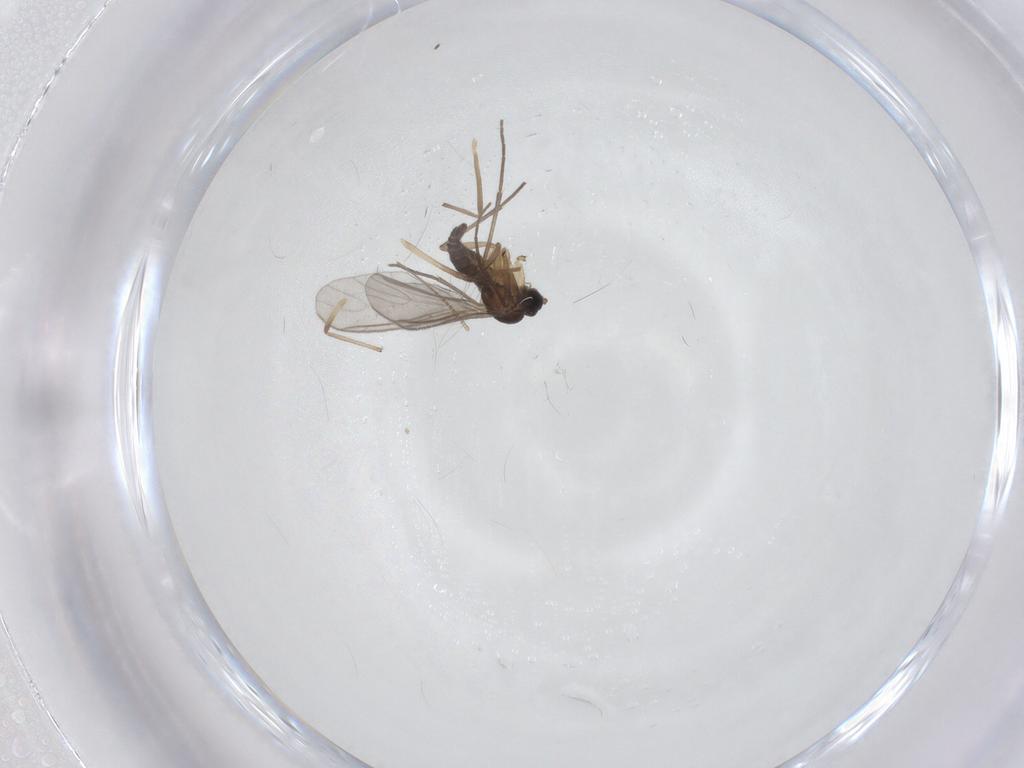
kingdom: Animalia
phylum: Arthropoda
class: Insecta
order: Diptera
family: Sciaridae
